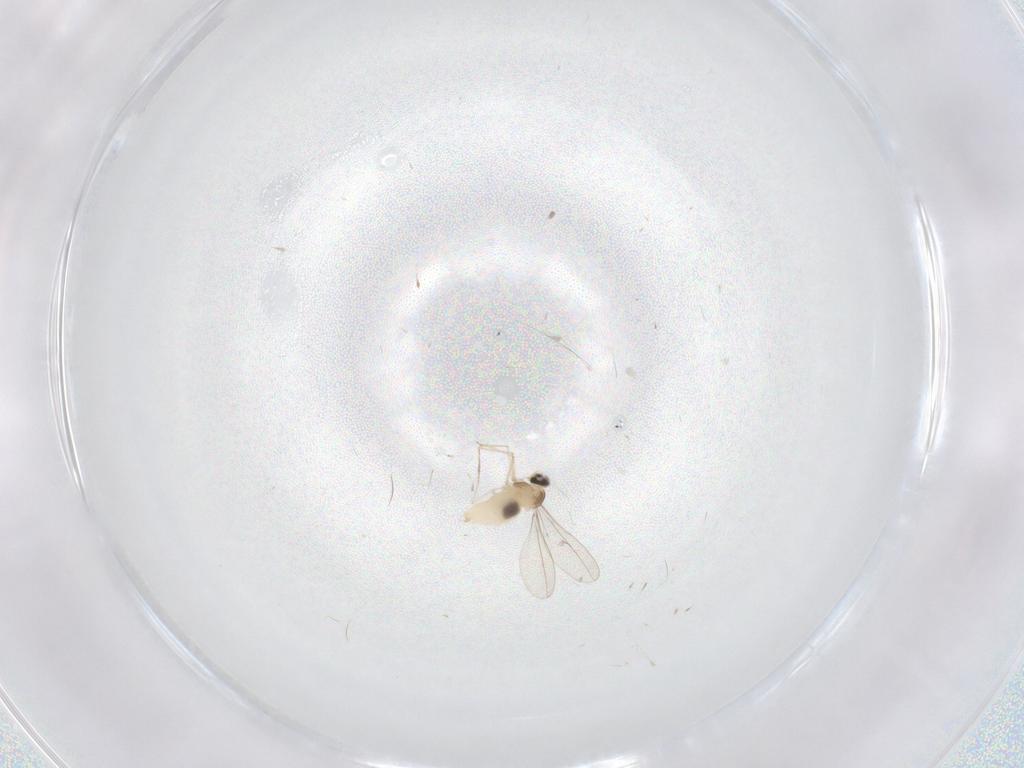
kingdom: Animalia
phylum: Arthropoda
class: Insecta
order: Diptera
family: Cecidomyiidae
